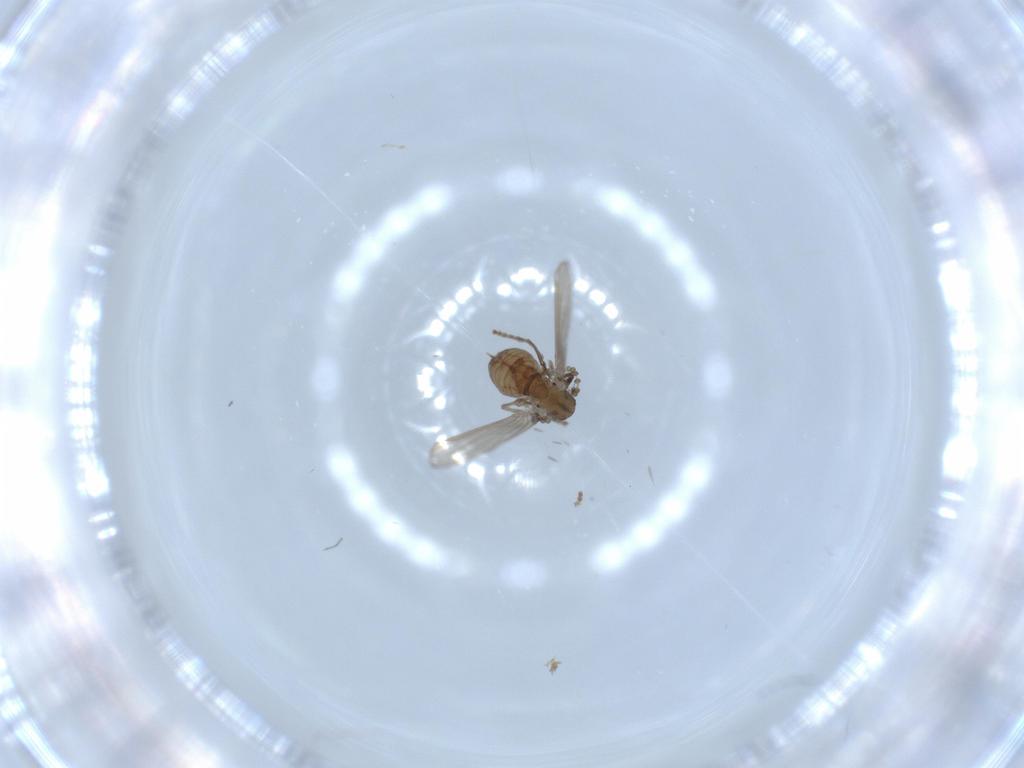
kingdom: Animalia
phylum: Arthropoda
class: Insecta
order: Diptera
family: Psychodidae
